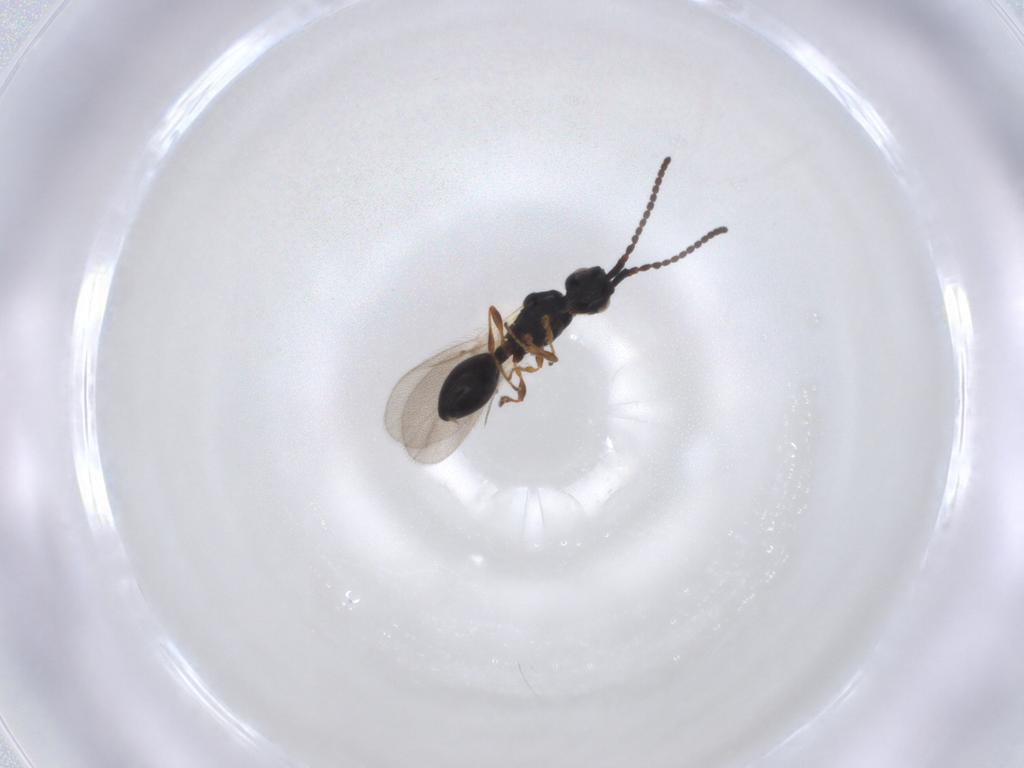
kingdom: Animalia
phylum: Arthropoda
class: Insecta
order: Hymenoptera
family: Diapriidae
